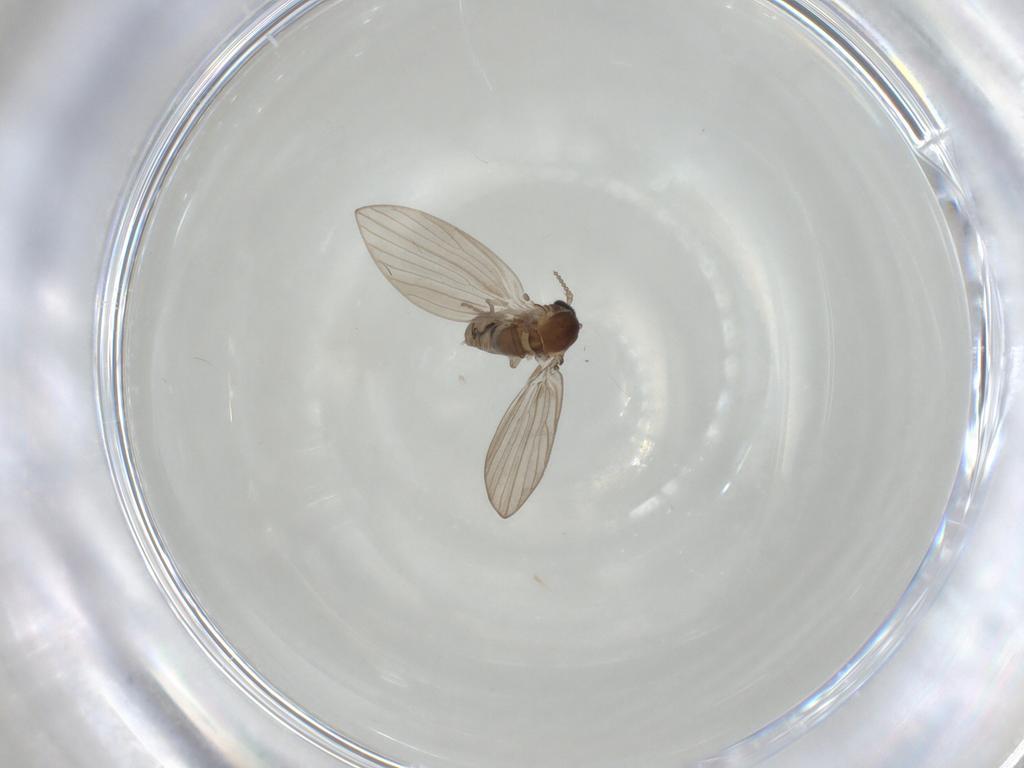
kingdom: Animalia
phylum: Arthropoda
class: Insecta
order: Diptera
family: Psychodidae
